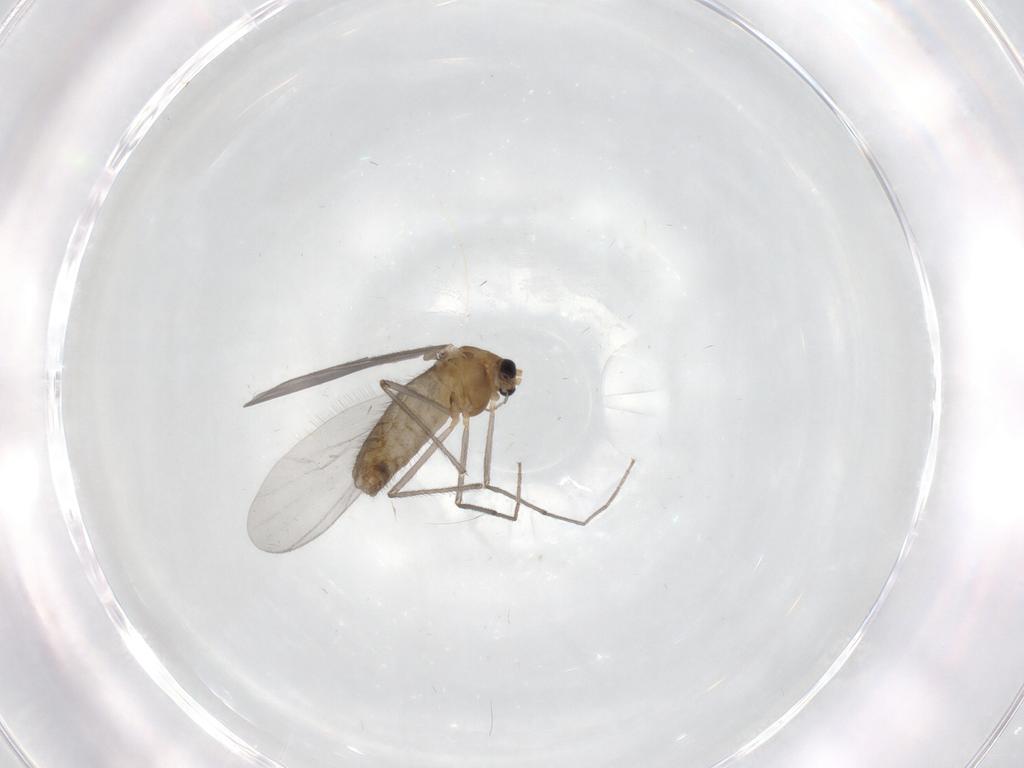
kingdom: Animalia
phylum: Arthropoda
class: Insecta
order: Diptera
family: Chironomidae
